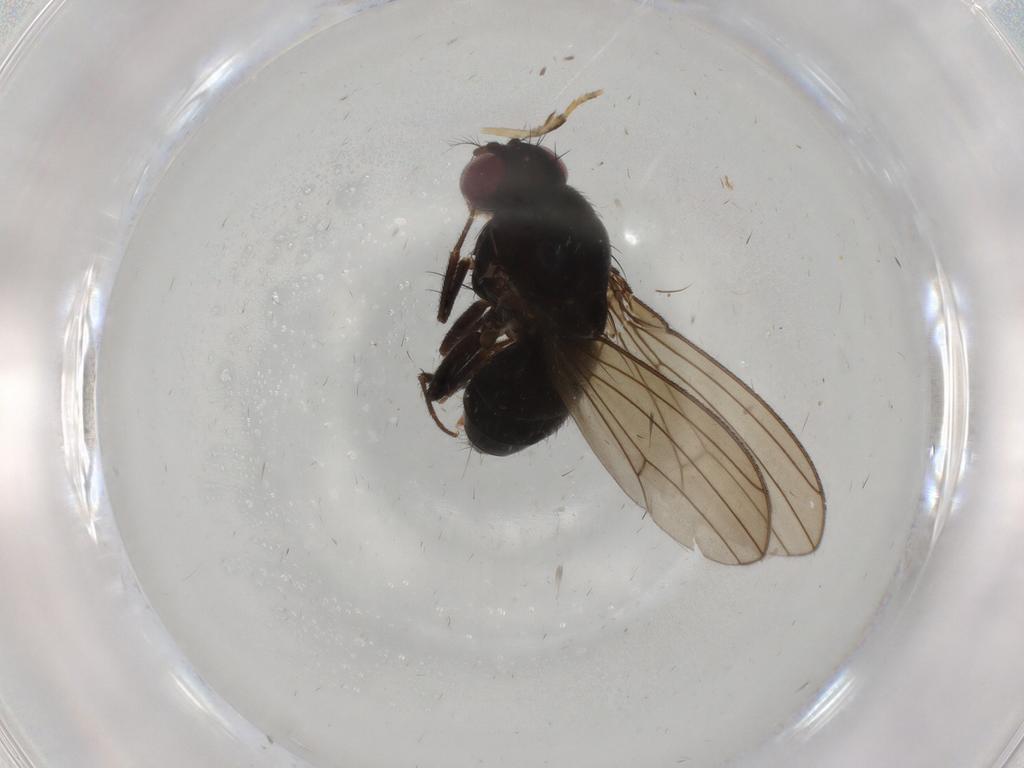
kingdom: Animalia
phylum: Arthropoda
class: Insecta
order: Diptera
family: Drosophilidae
